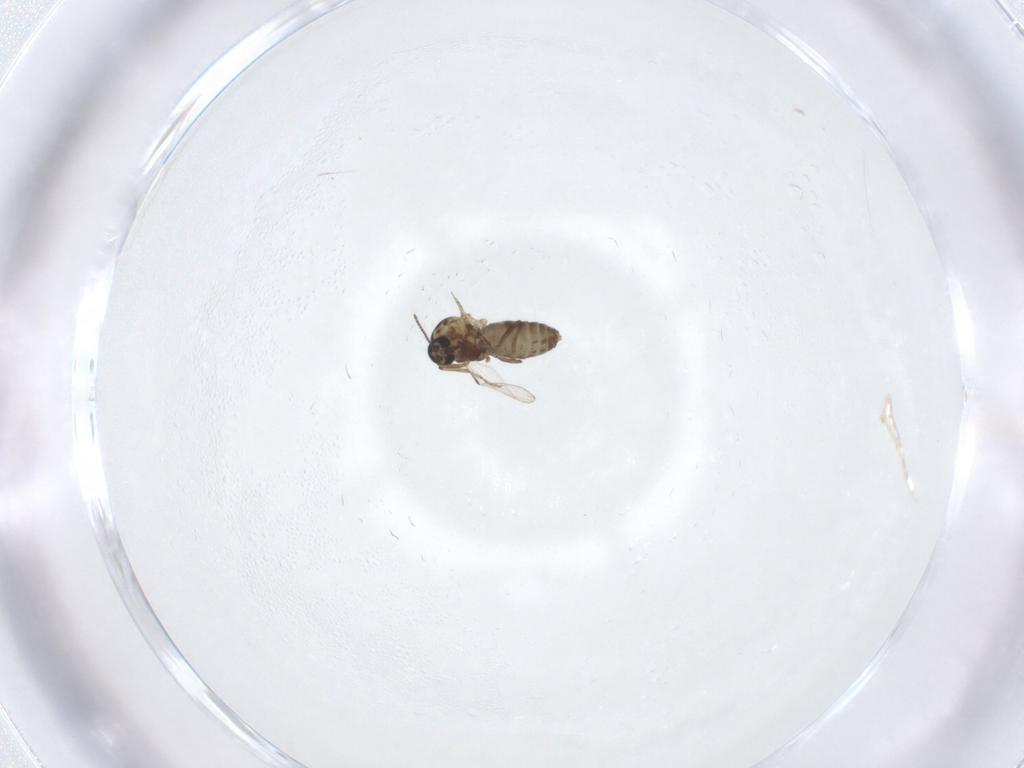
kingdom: Animalia
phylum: Arthropoda
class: Insecta
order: Diptera
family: Ceratopogonidae
